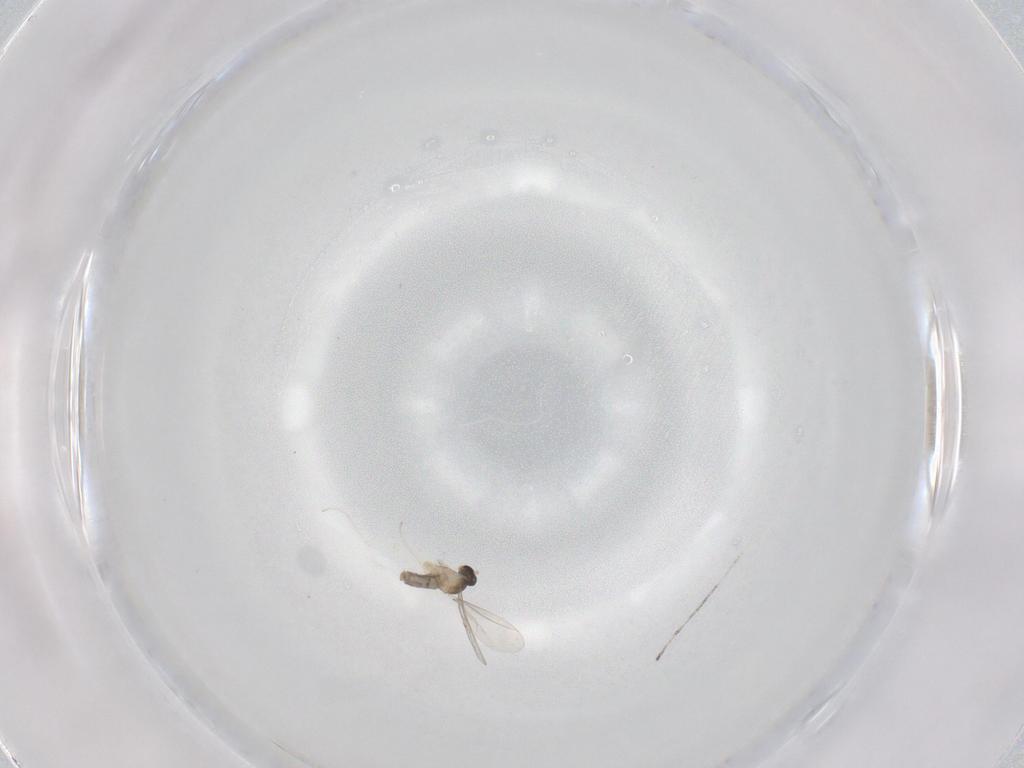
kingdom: Animalia
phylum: Arthropoda
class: Insecta
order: Diptera
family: Cecidomyiidae
